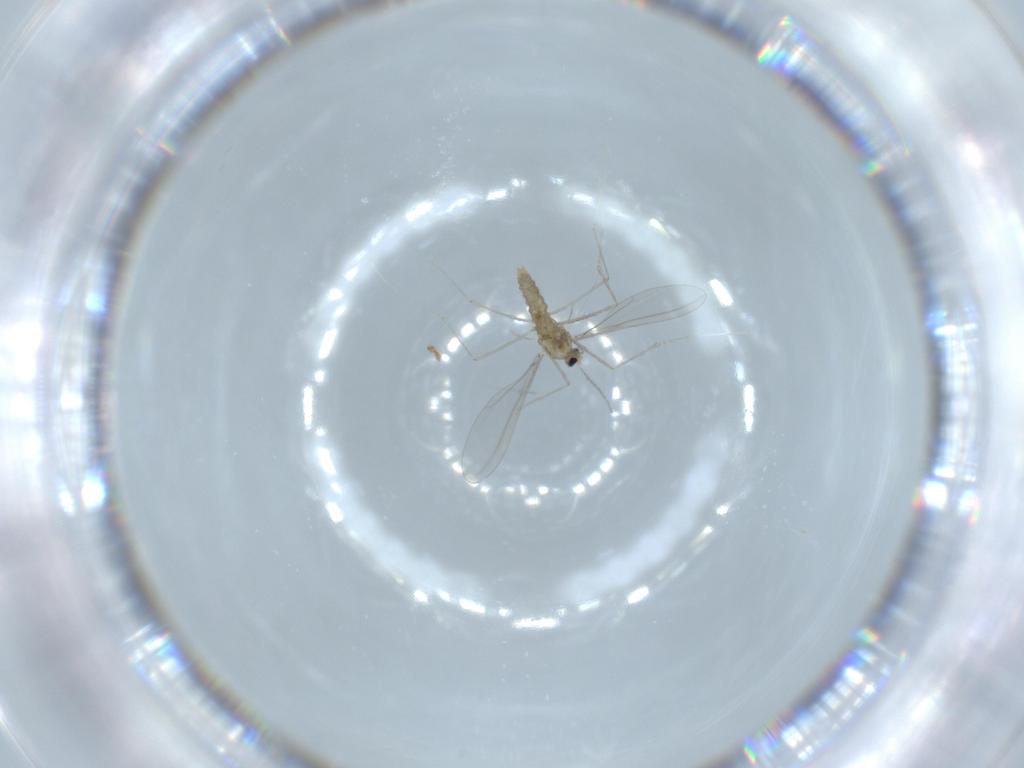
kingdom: Animalia
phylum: Arthropoda
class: Insecta
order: Diptera
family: Cecidomyiidae
